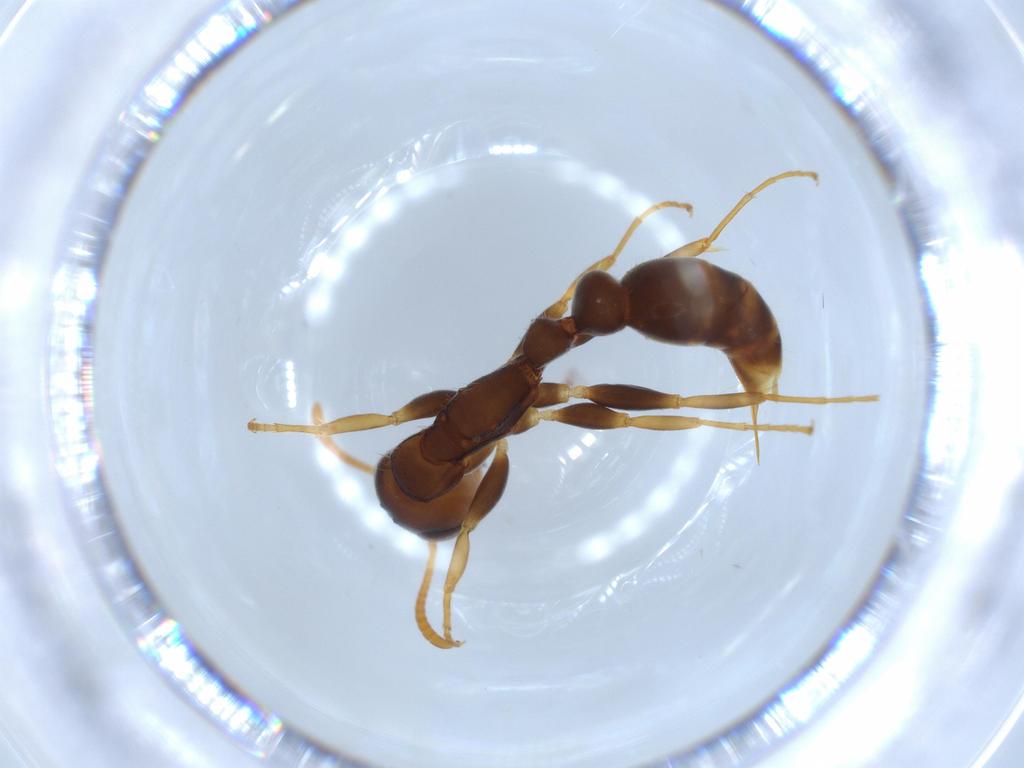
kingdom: Animalia
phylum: Arthropoda
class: Insecta
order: Hymenoptera
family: Formicidae
